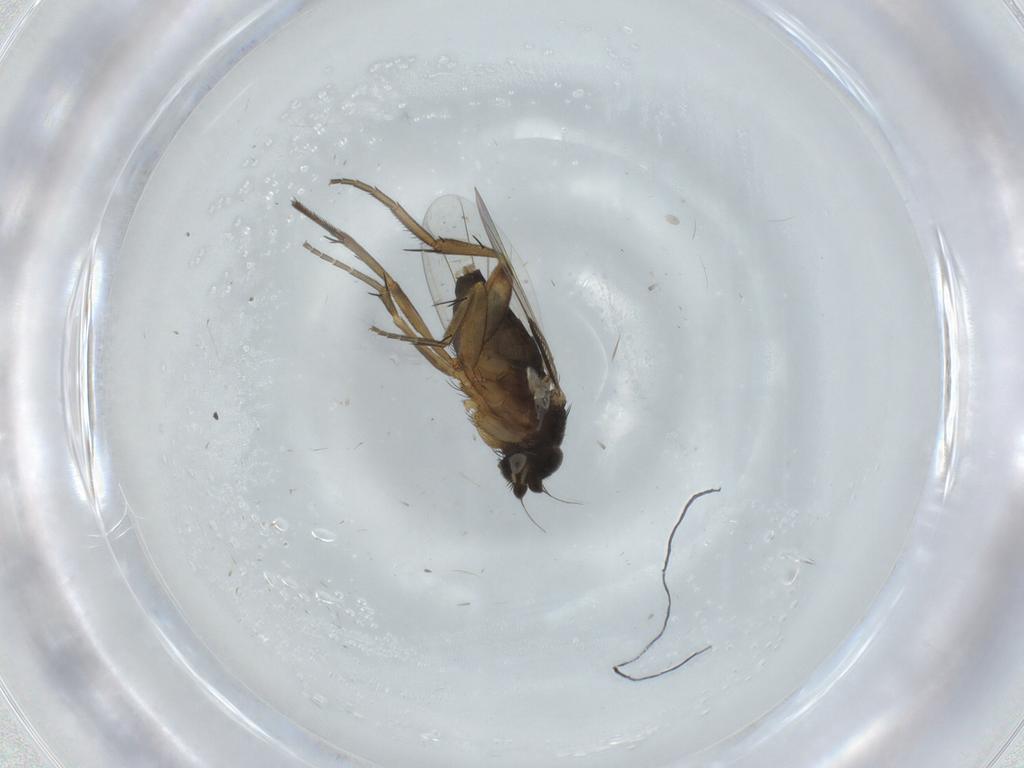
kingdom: Animalia
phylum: Arthropoda
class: Insecta
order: Diptera
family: Phoridae
